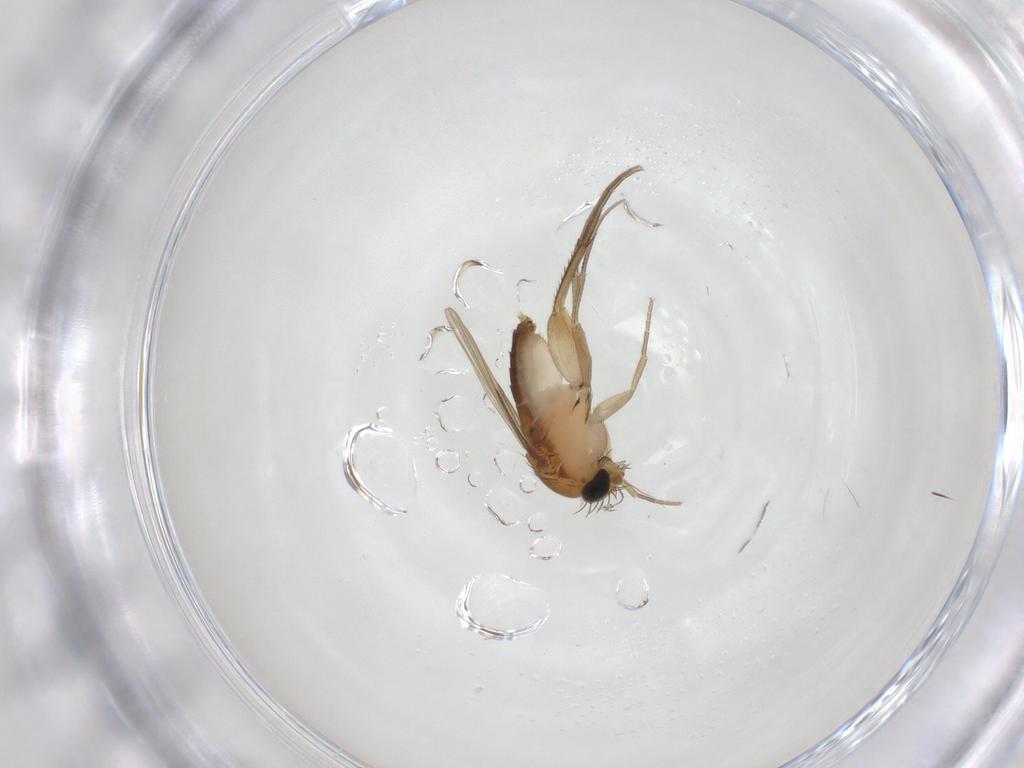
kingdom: Animalia
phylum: Arthropoda
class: Insecta
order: Diptera
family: Phoridae
